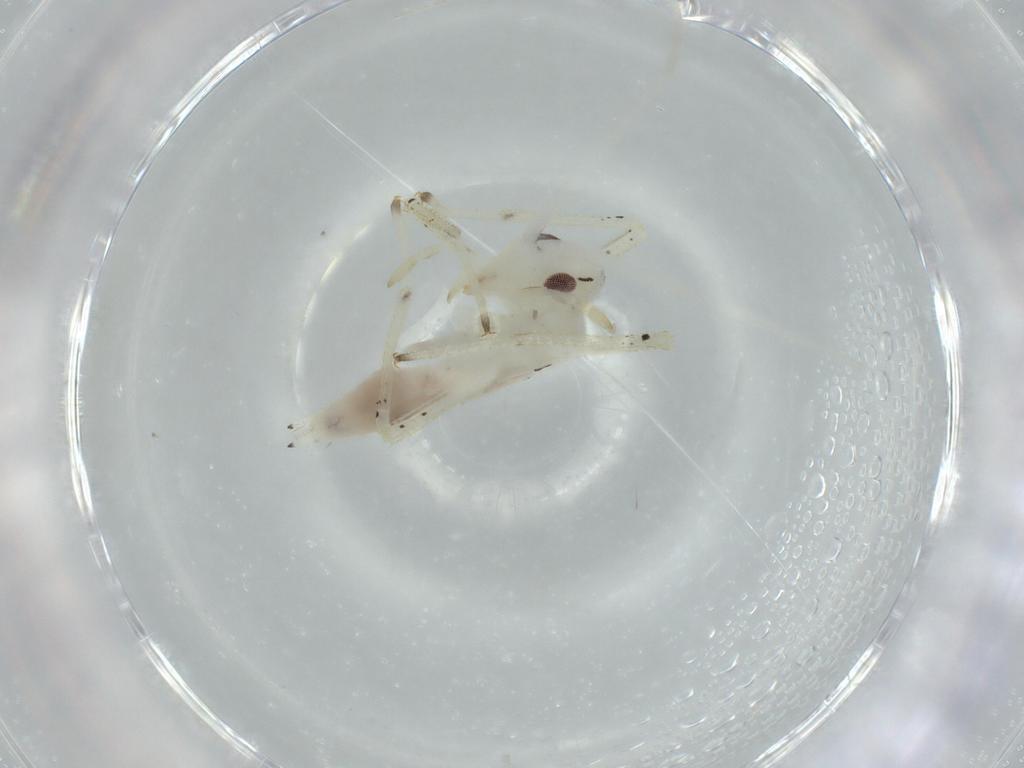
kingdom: Animalia
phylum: Arthropoda
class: Insecta
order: Orthoptera
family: Oecanthidae
